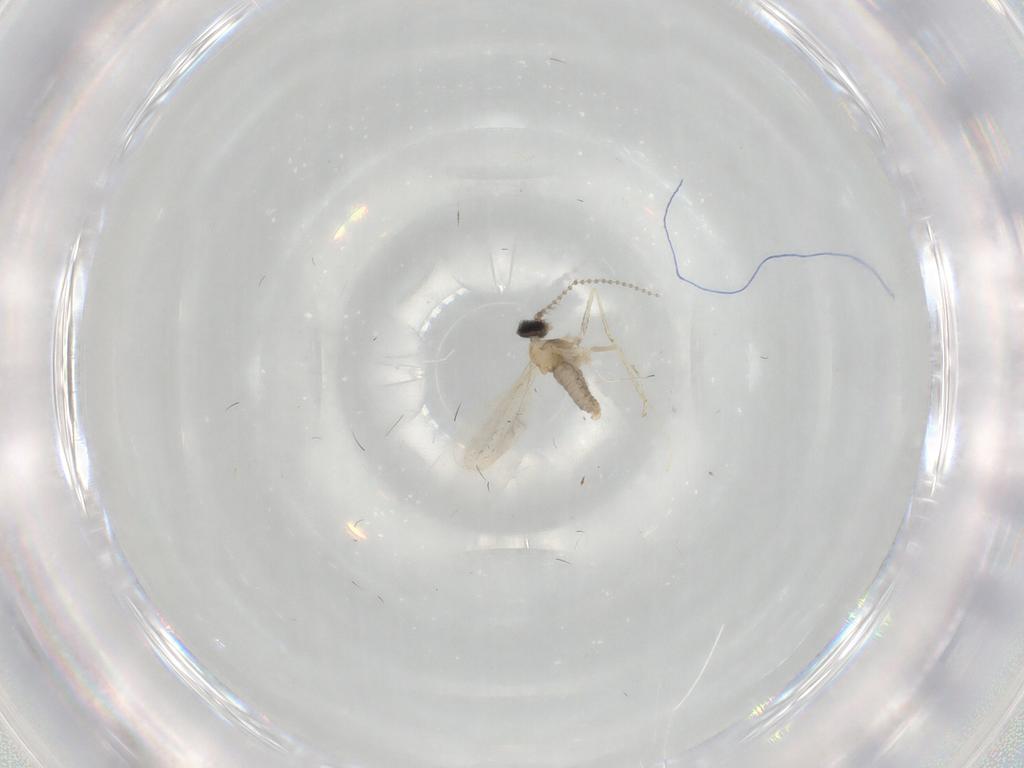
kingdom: Animalia
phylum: Arthropoda
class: Insecta
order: Diptera
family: Cecidomyiidae
